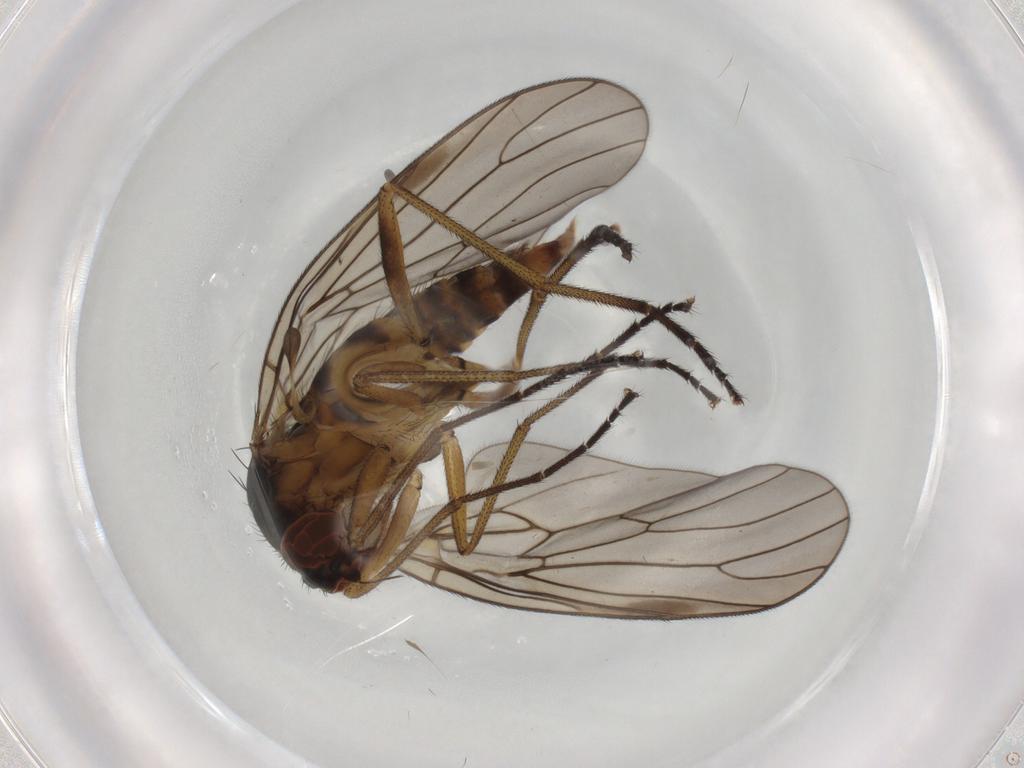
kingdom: Animalia
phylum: Arthropoda
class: Insecta
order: Diptera
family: Brachystomatidae
